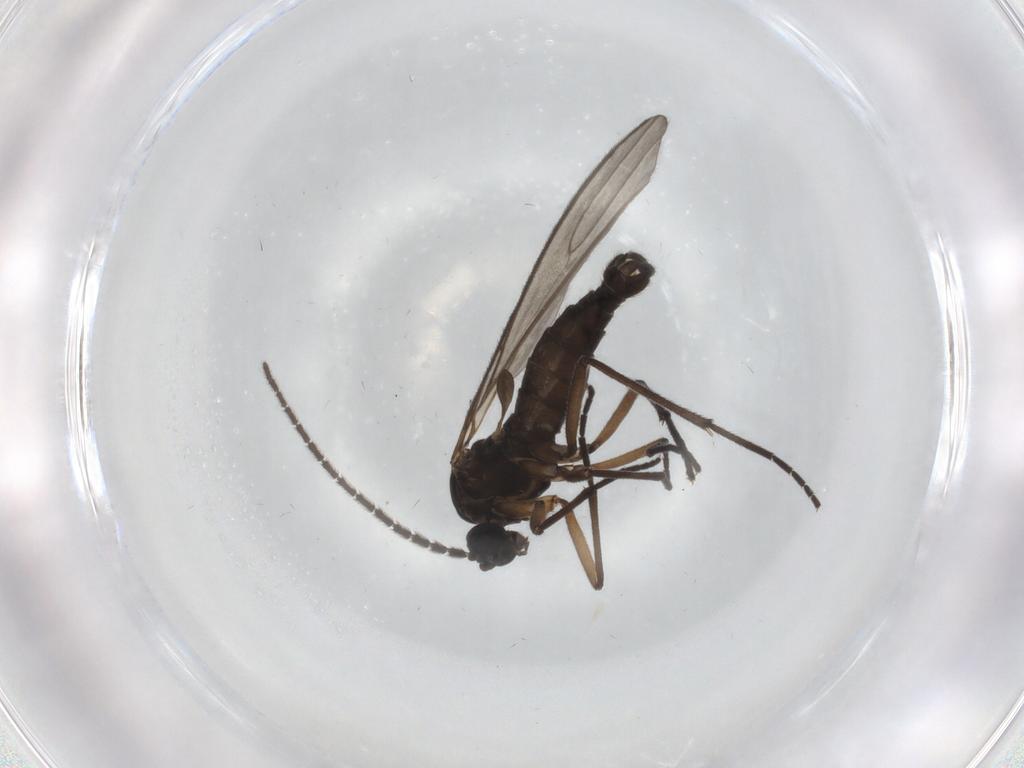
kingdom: Animalia
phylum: Arthropoda
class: Insecta
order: Diptera
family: Sciaridae
